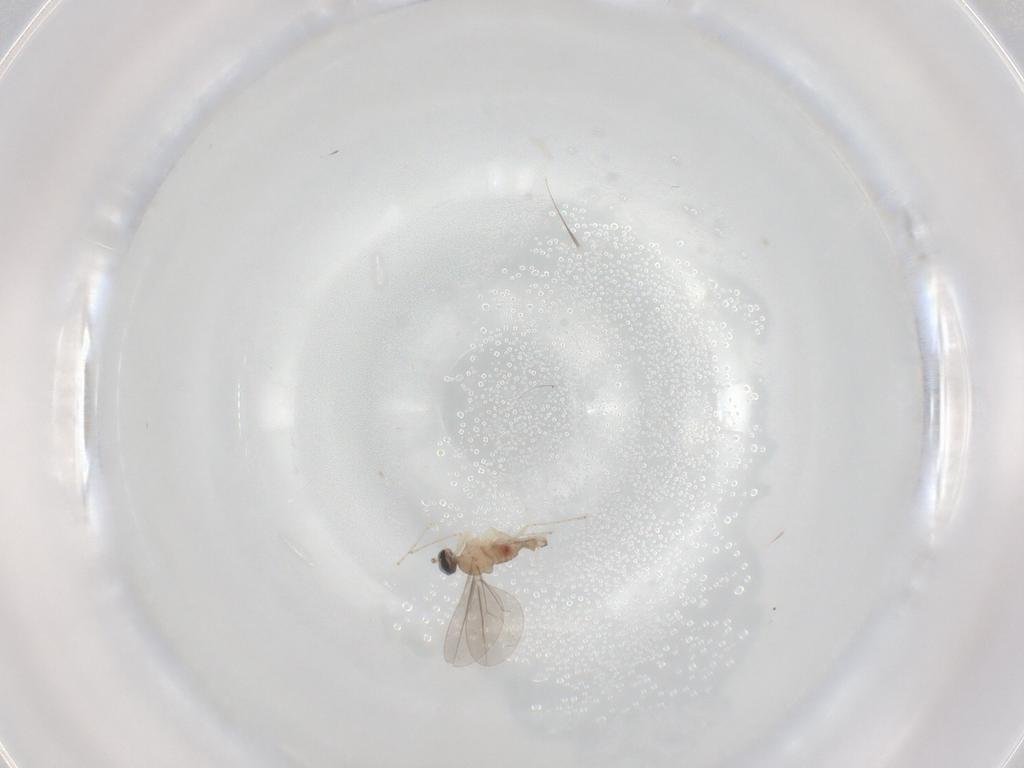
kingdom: Animalia
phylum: Arthropoda
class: Insecta
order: Diptera
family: Cecidomyiidae
